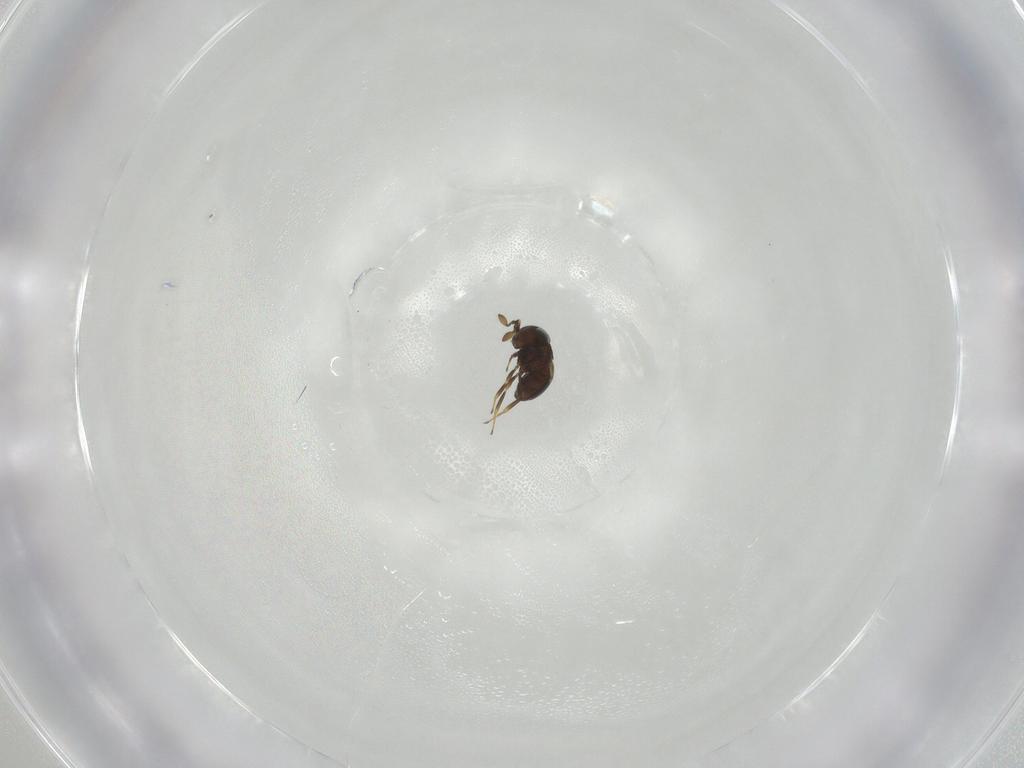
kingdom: Animalia
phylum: Arthropoda
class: Insecta
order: Hymenoptera
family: Scelionidae
